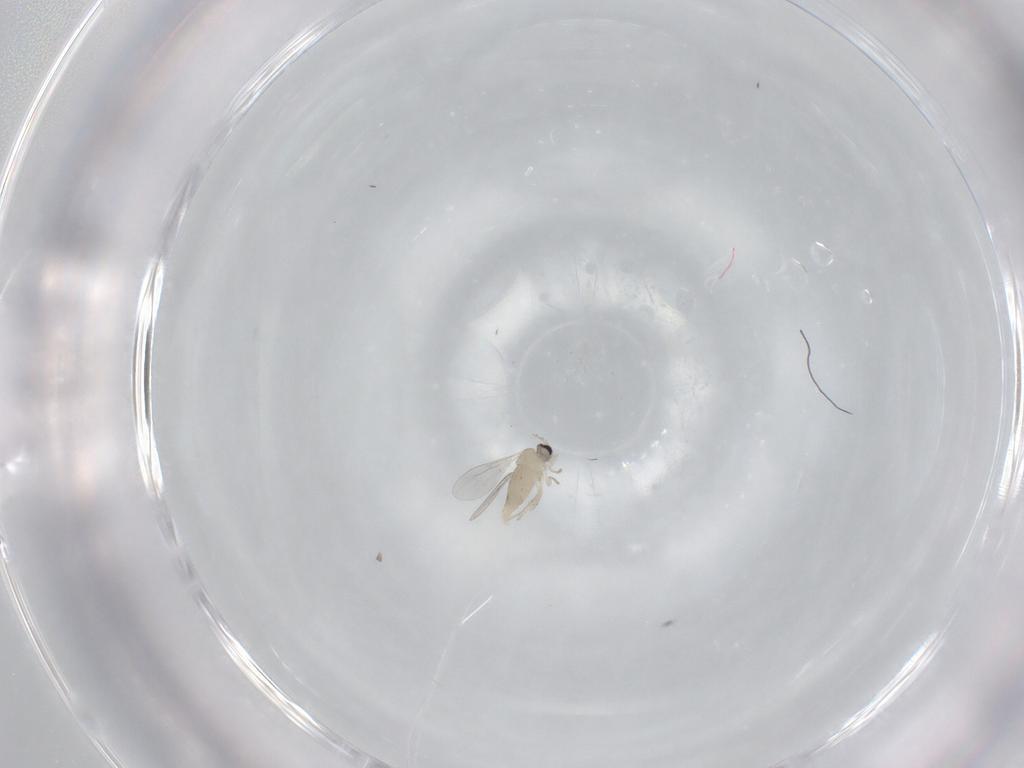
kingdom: Animalia
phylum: Arthropoda
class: Insecta
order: Diptera
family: Cecidomyiidae
